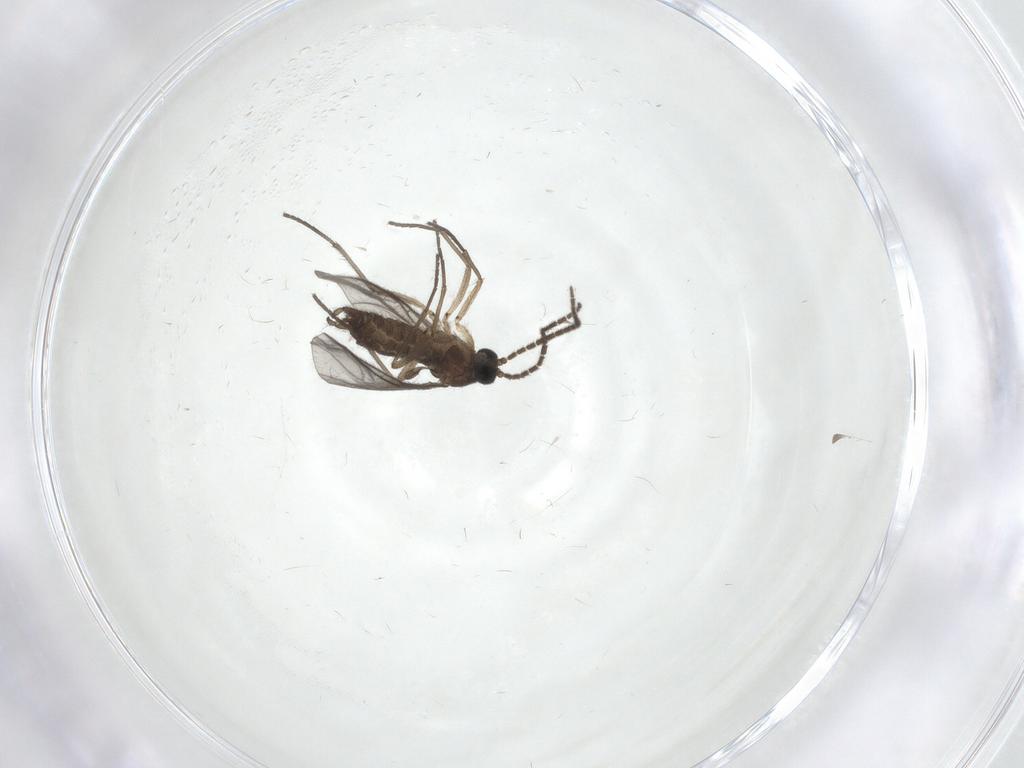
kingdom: Animalia
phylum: Arthropoda
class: Insecta
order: Diptera
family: Sciaridae
